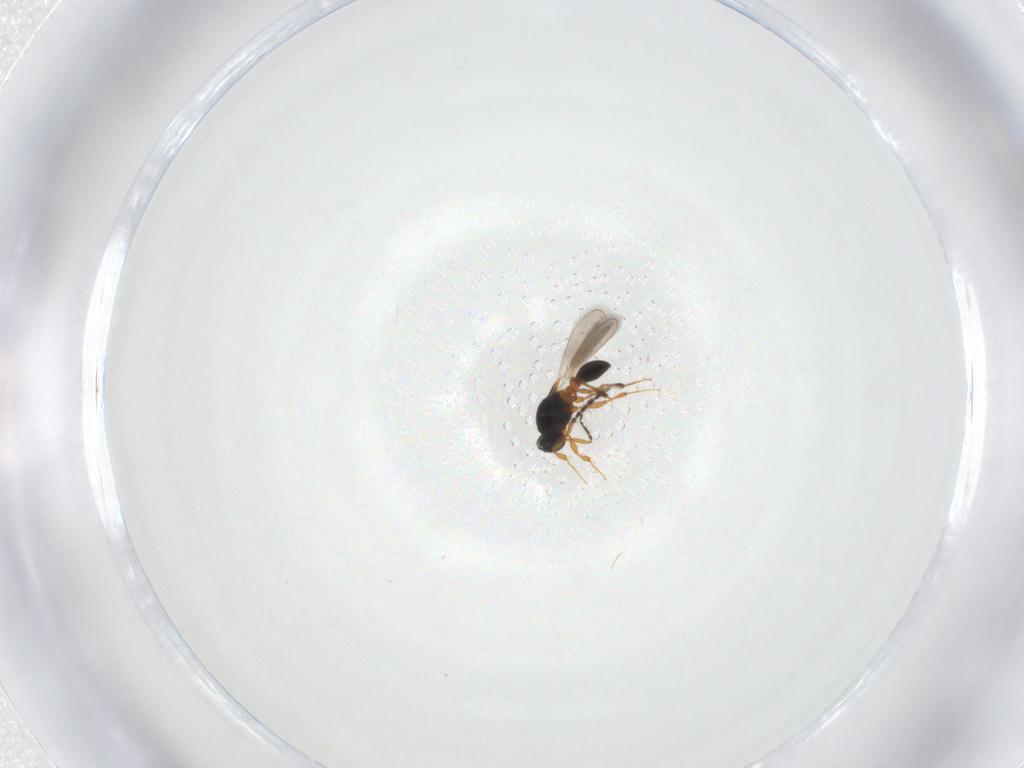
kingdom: Animalia
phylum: Arthropoda
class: Insecta
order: Hymenoptera
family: Platygastridae
